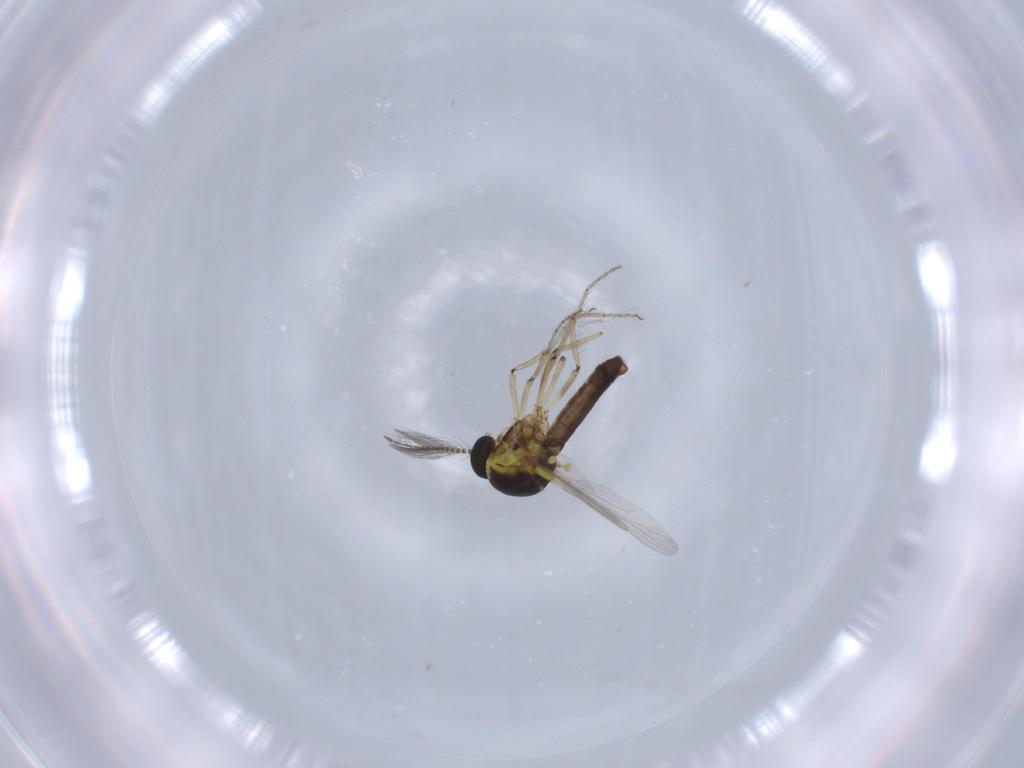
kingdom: Animalia
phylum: Arthropoda
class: Insecta
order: Diptera
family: Ceratopogonidae
